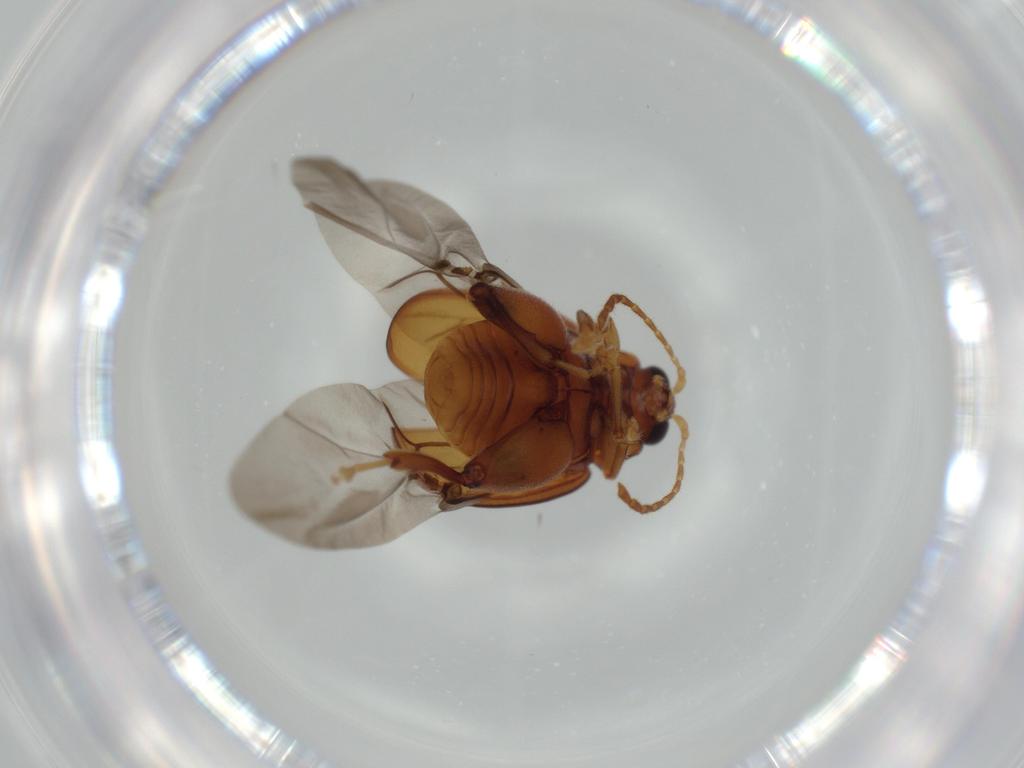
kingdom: Animalia
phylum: Arthropoda
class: Insecta
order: Coleoptera
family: Chrysomelidae
